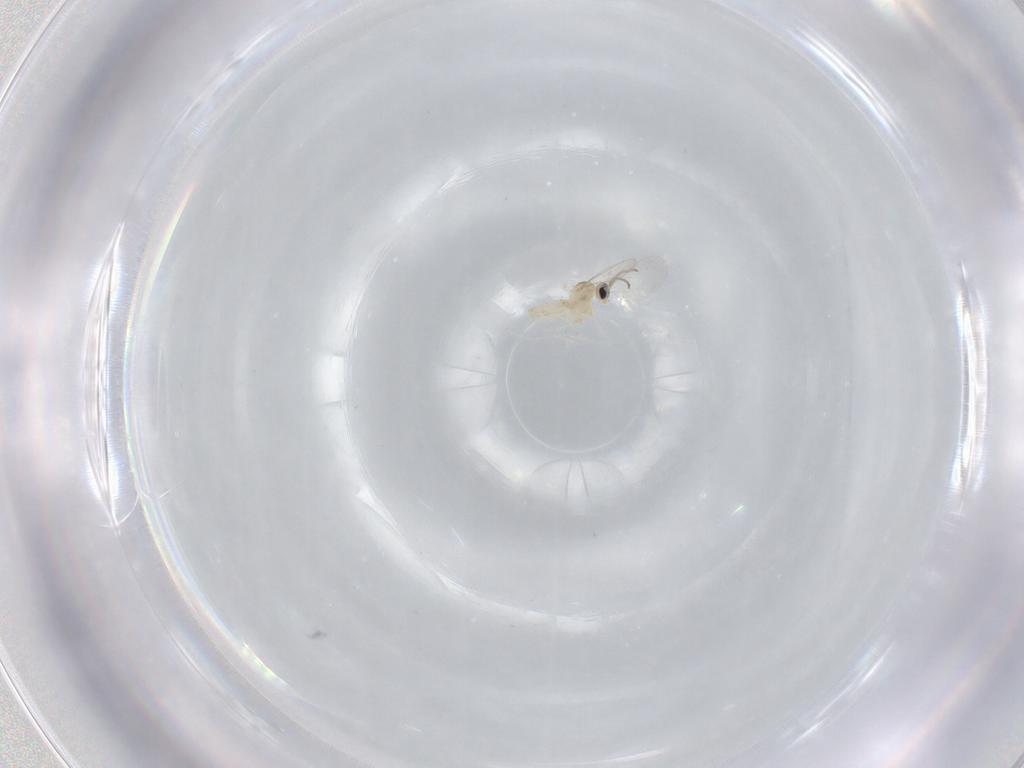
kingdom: Animalia
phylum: Arthropoda
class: Insecta
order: Diptera
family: Cecidomyiidae
